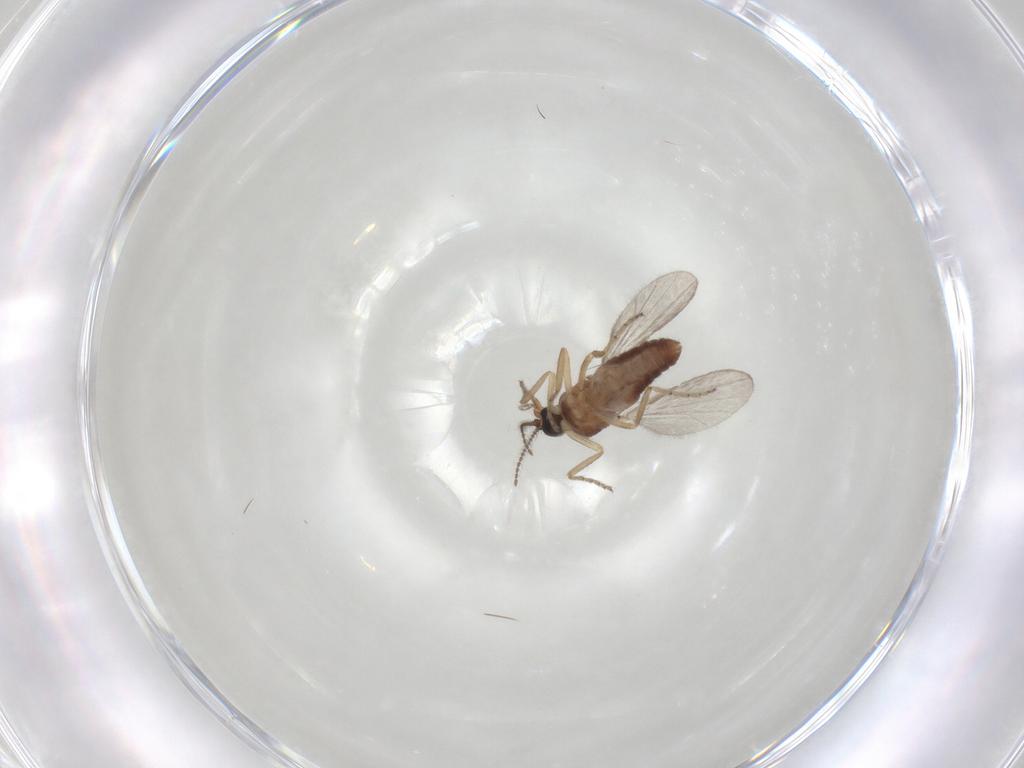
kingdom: Animalia
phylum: Arthropoda
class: Insecta
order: Diptera
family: Ceratopogonidae
